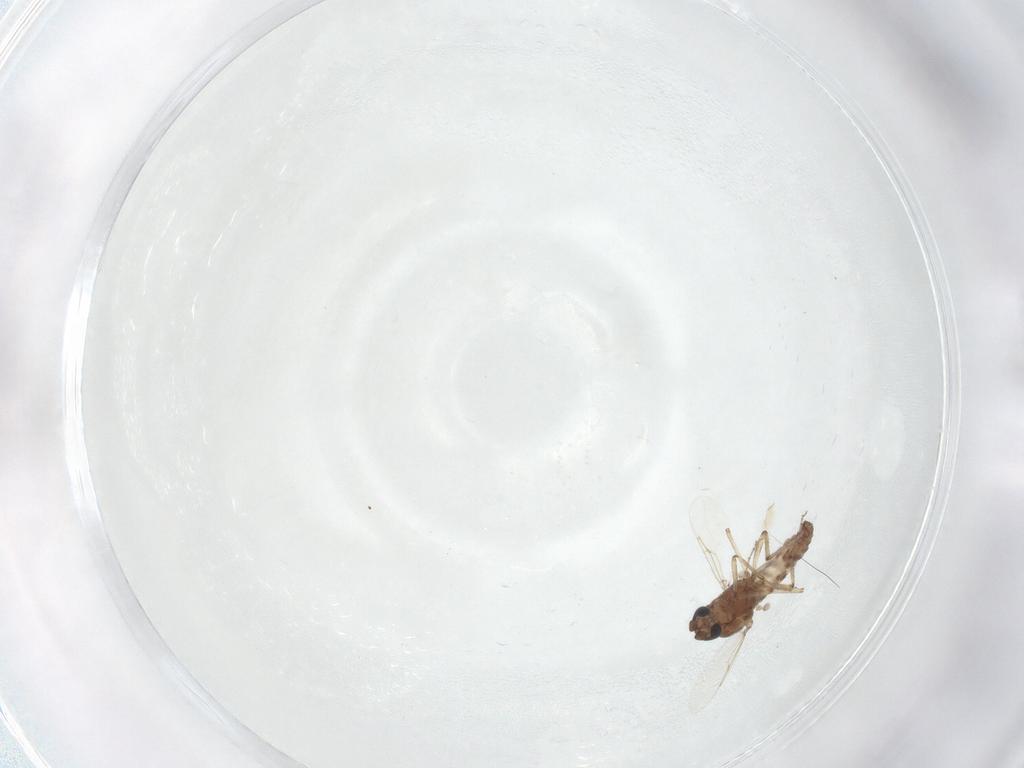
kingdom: Animalia
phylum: Arthropoda
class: Insecta
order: Diptera
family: Ceratopogonidae
